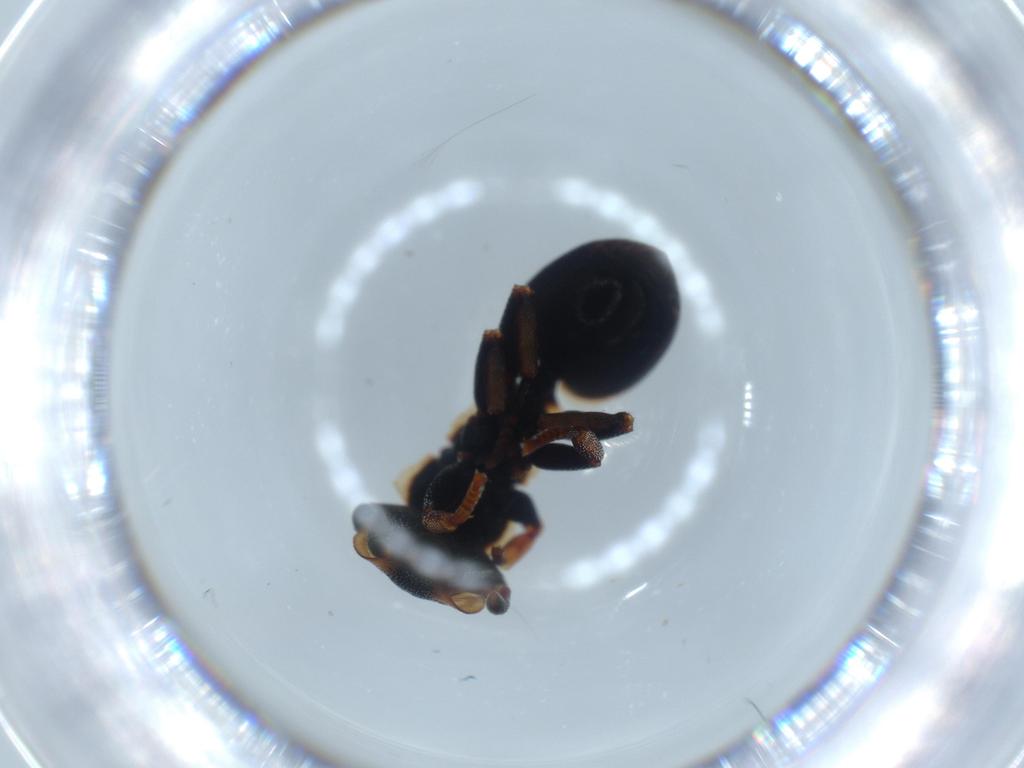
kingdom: Animalia
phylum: Arthropoda
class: Insecta
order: Hymenoptera
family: Formicidae
